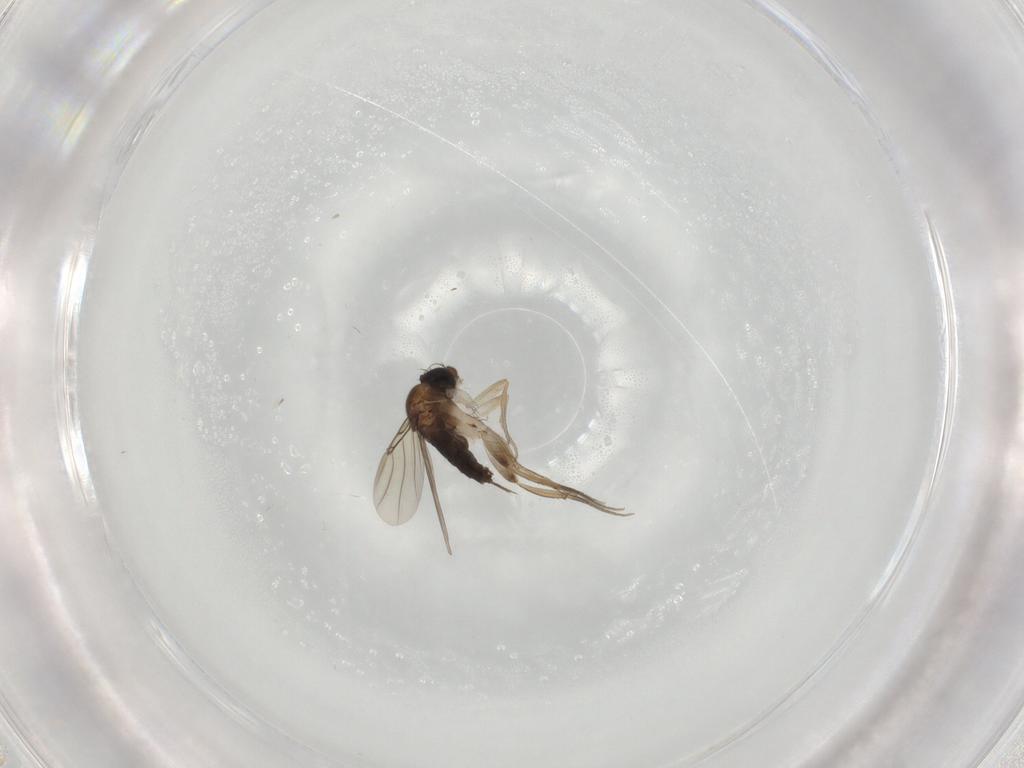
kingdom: Animalia
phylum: Arthropoda
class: Insecta
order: Diptera
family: Phoridae
